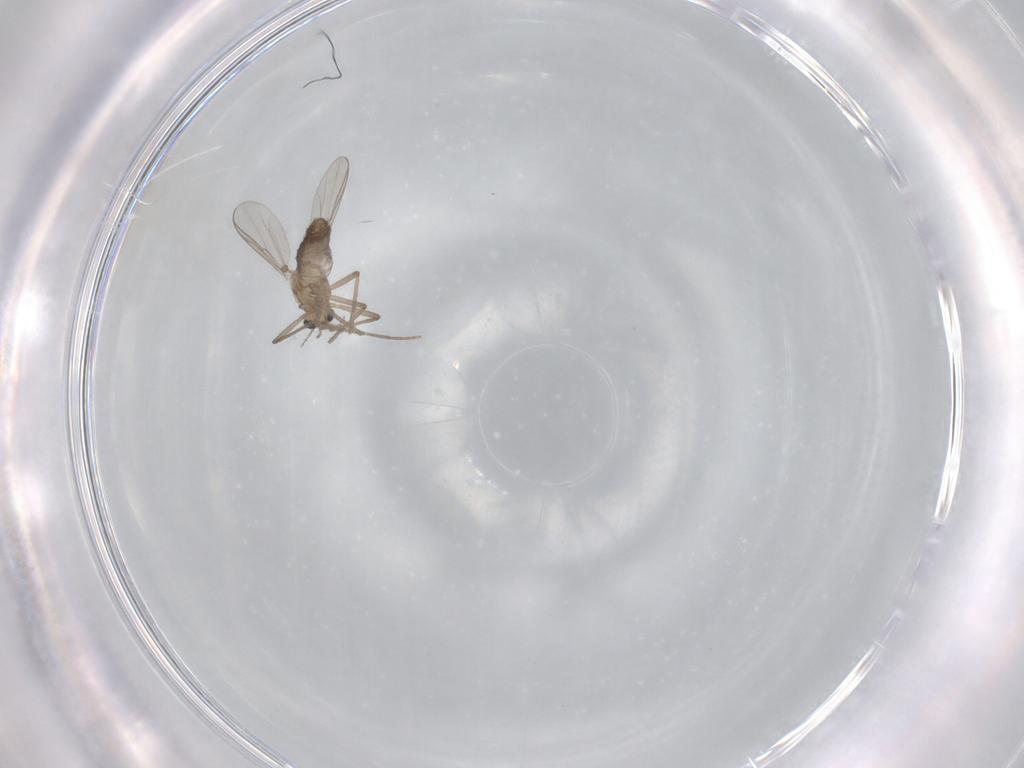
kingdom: Animalia
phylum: Arthropoda
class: Insecta
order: Diptera
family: Chironomidae
